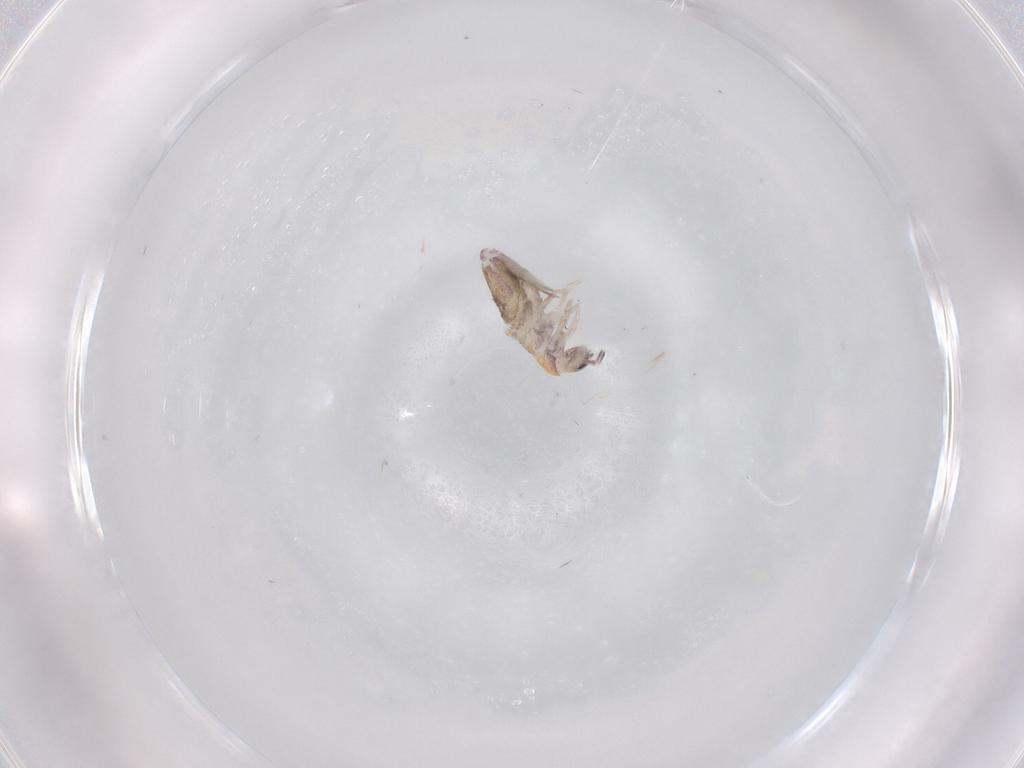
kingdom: Animalia
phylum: Arthropoda
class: Collembola
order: Entomobryomorpha
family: Entomobryidae
